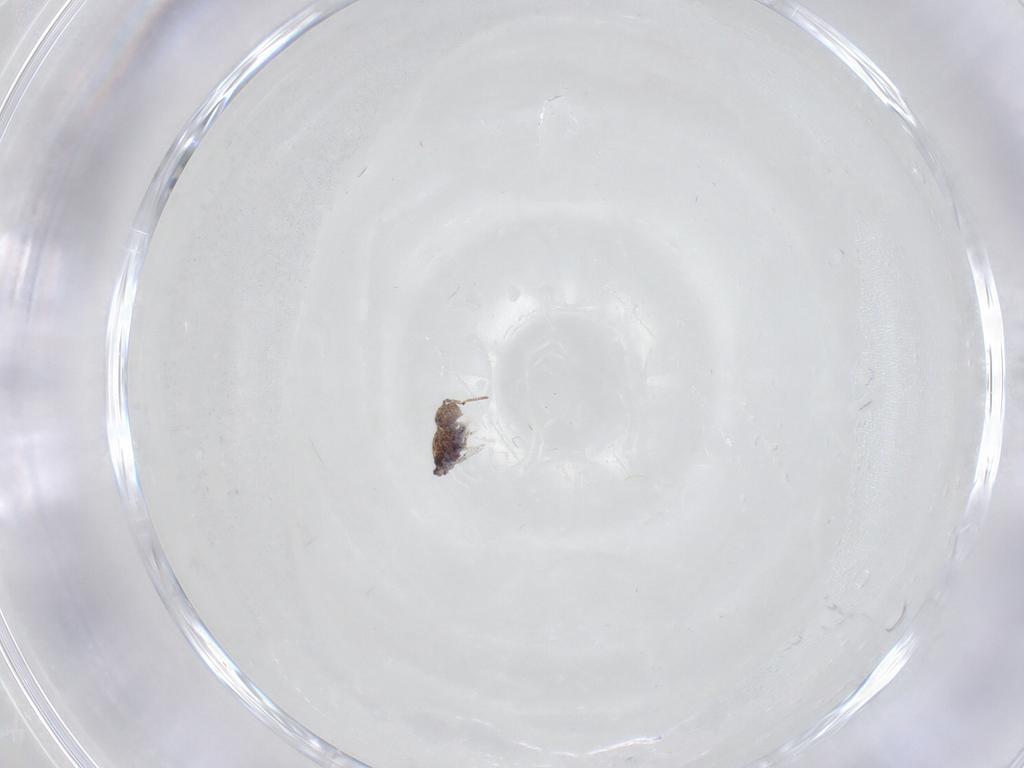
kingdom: Animalia
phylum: Arthropoda
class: Collembola
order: Symphypleona
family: Bourletiellidae
